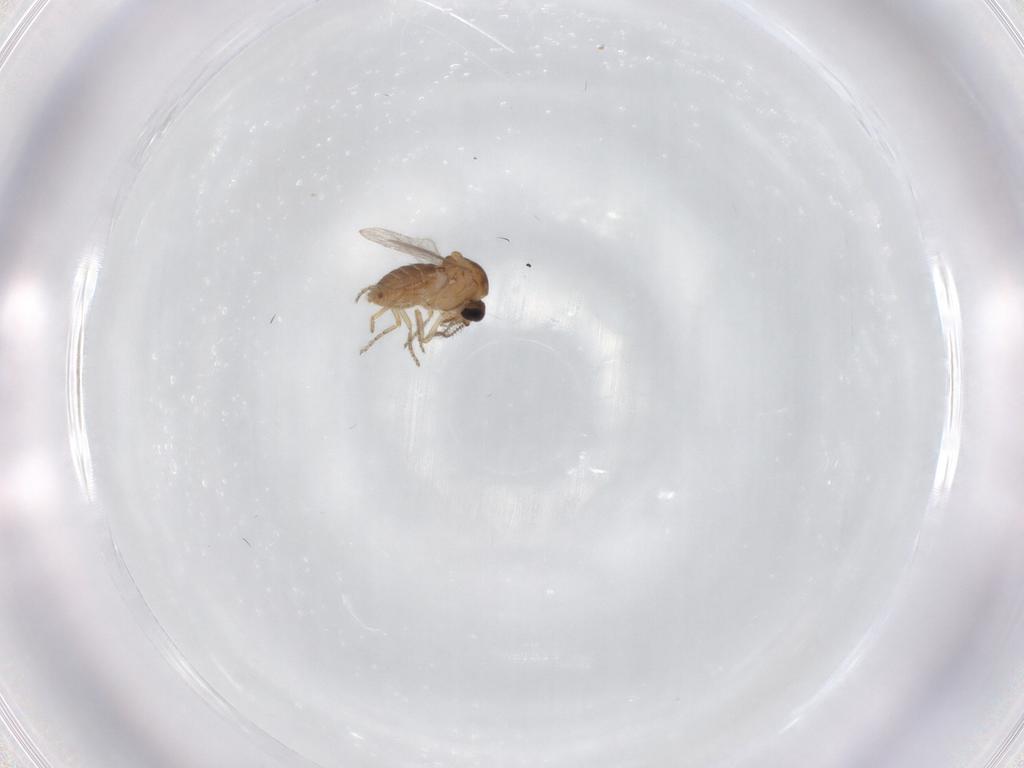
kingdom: Animalia
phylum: Arthropoda
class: Insecta
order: Diptera
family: Ceratopogonidae
